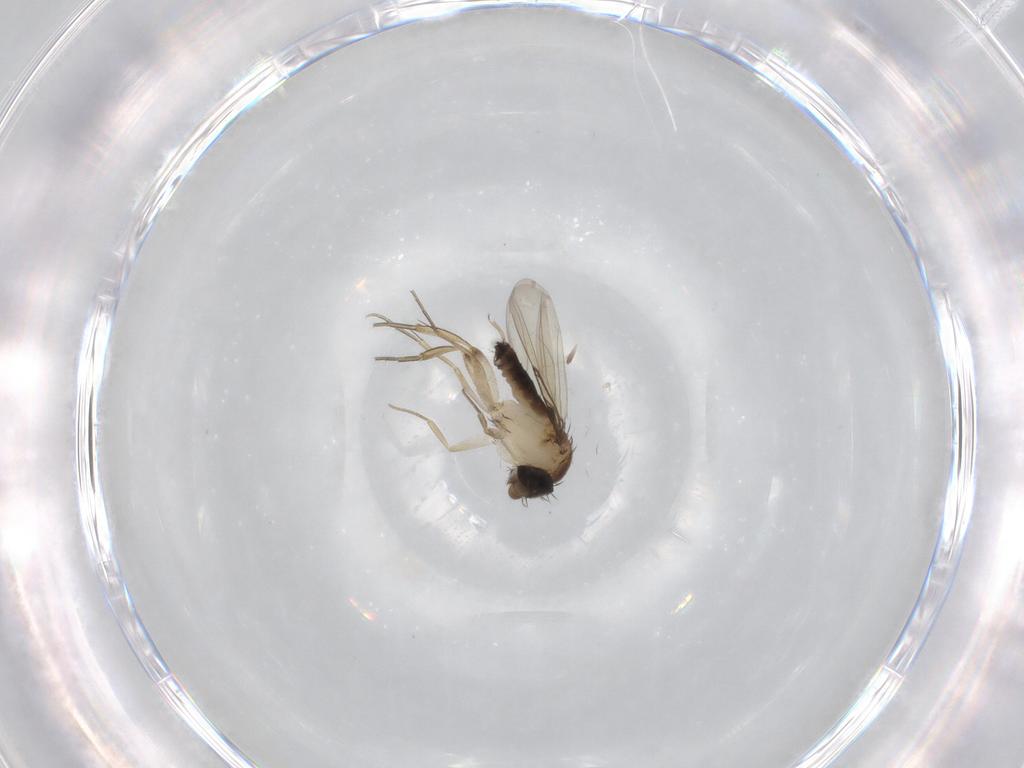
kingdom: Animalia
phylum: Arthropoda
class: Insecta
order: Diptera
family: Phoridae
